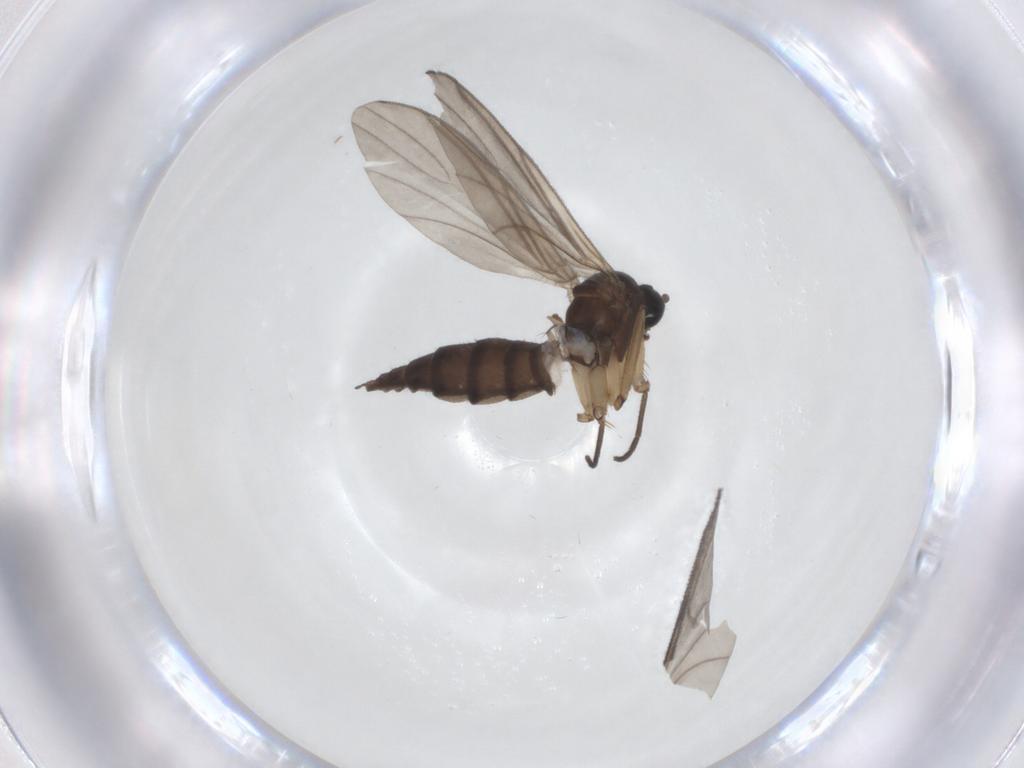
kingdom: Animalia
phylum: Arthropoda
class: Insecta
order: Diptera
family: Sciaridae
